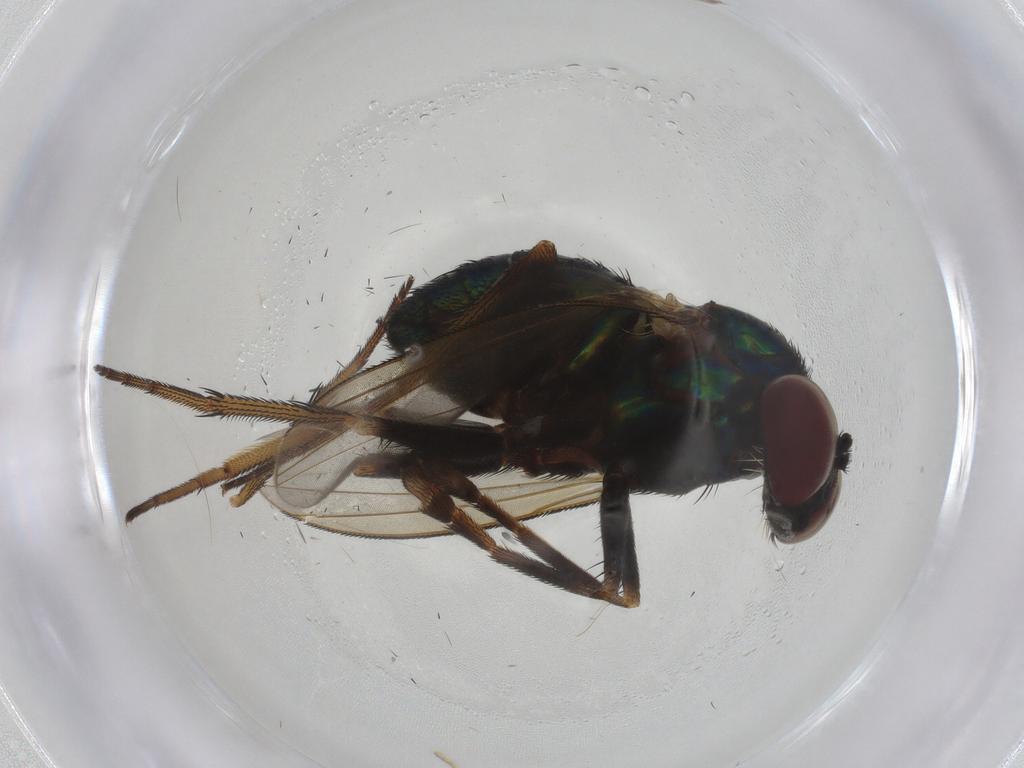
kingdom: Animalia
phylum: Arthropoda
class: Insecta
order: Diptera
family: Dolichopodidae
